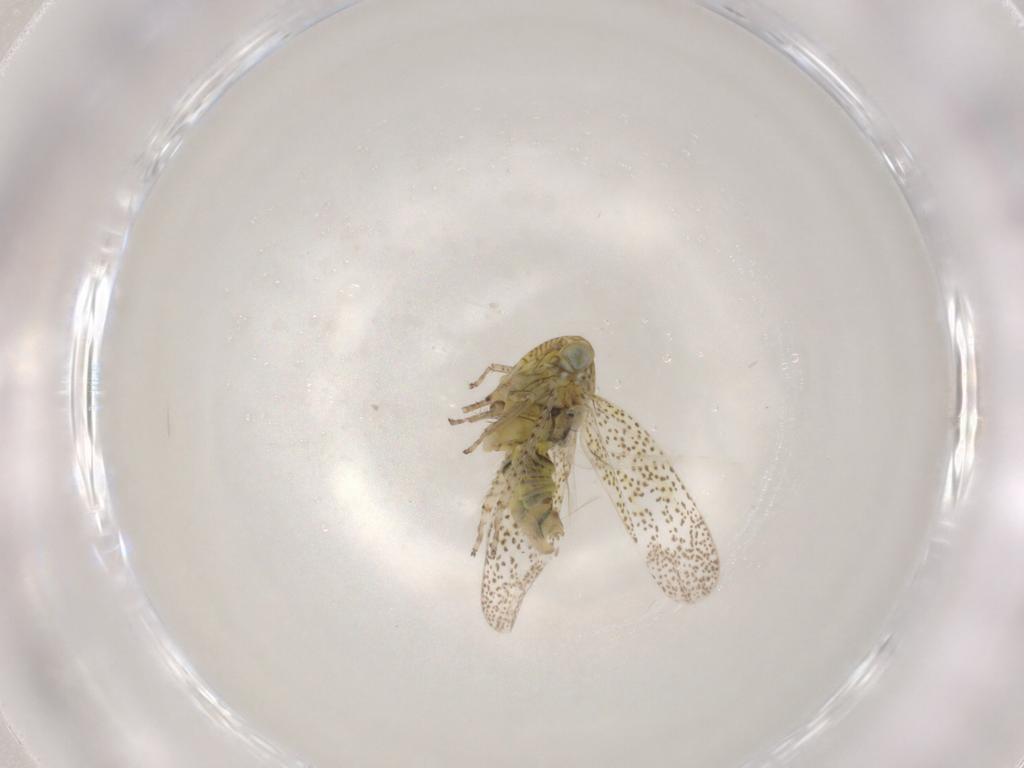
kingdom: Animalia
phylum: Arthropoda
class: Insecta
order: Hemiptera
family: Cicadellidae
